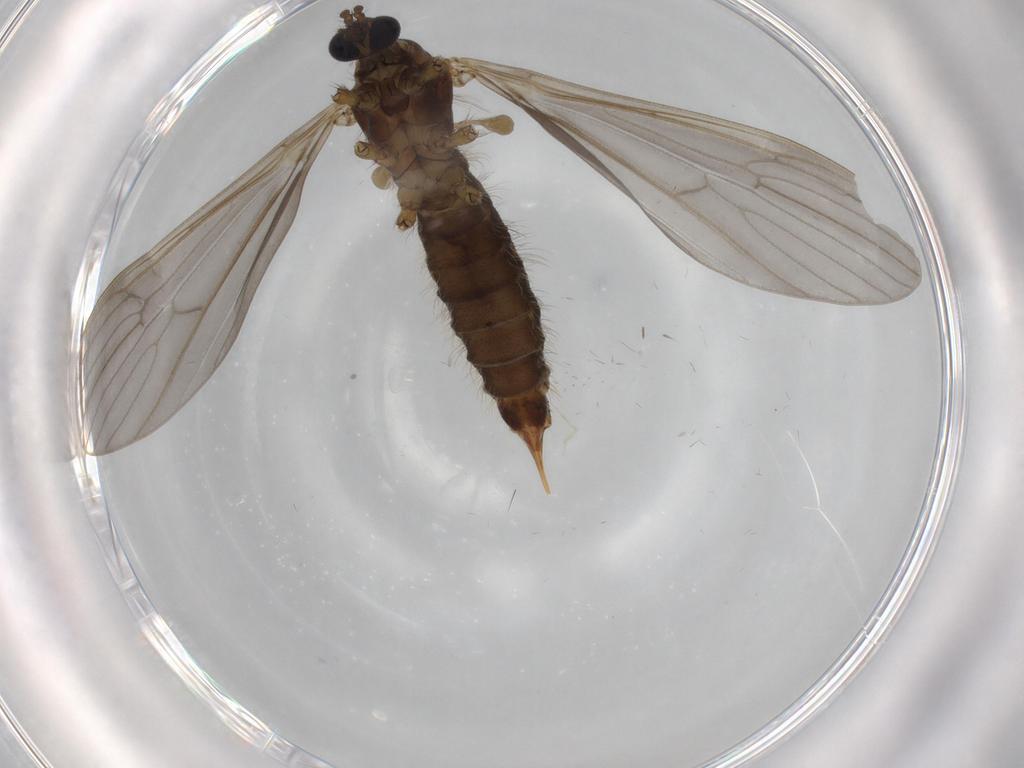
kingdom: Animalia
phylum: Arthropoda
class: Insecta
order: Diptera
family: Limoniidae
